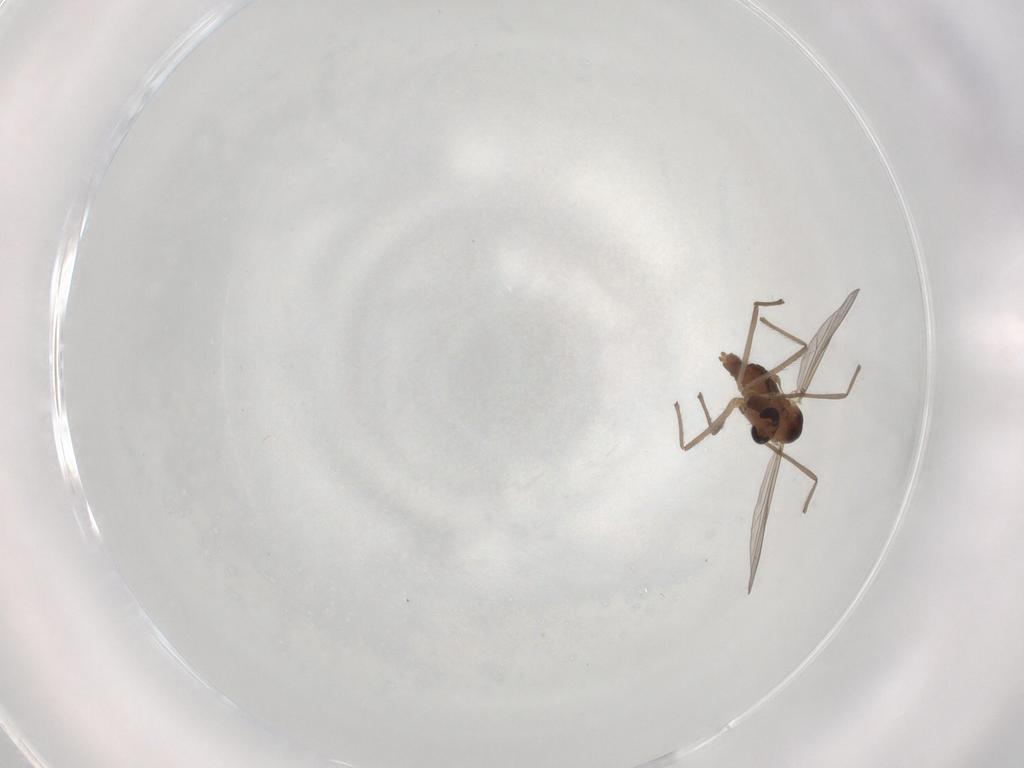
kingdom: Animalia
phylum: Arthropoda
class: Insecta
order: Diptera
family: Chironomidae
